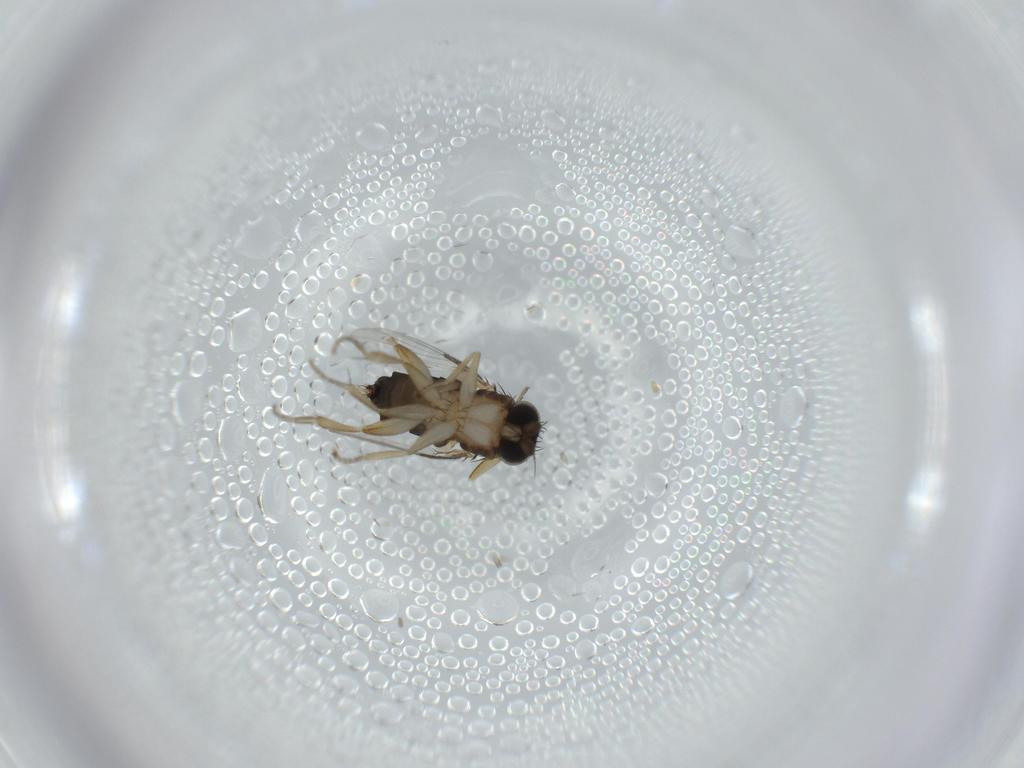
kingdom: Animalia
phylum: Arthropoda
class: Insecta
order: Diptera
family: Phoridae
